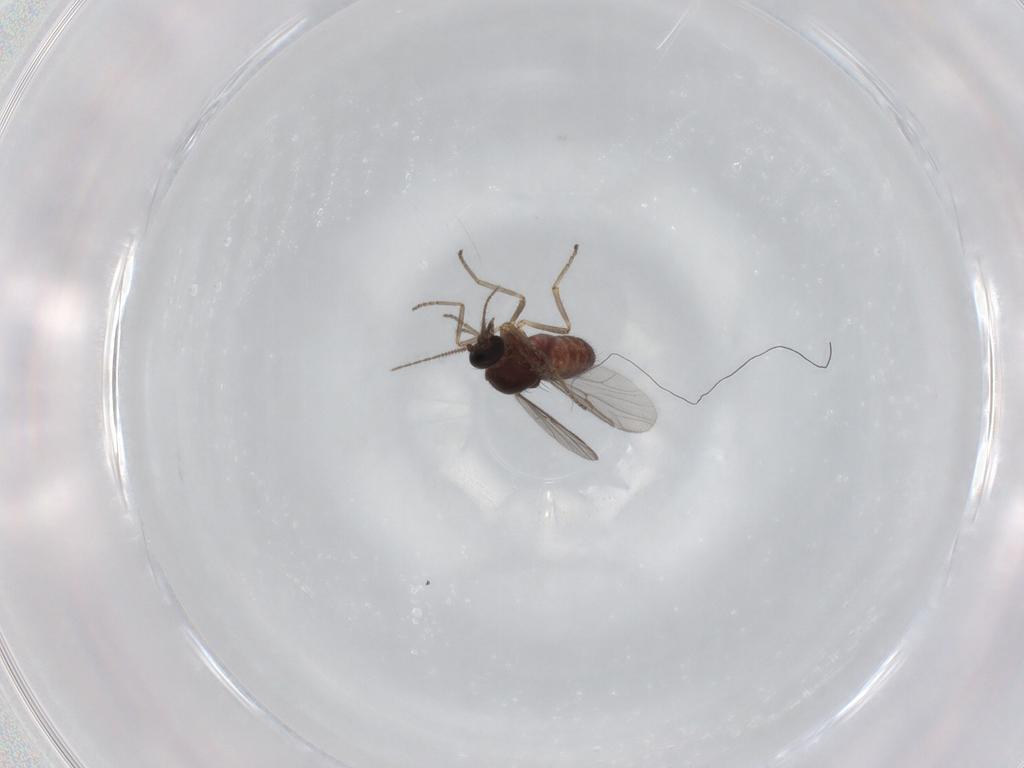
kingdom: Animalia
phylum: Arthropoda
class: Insecta
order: Diptera
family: Ceratopogonidae
